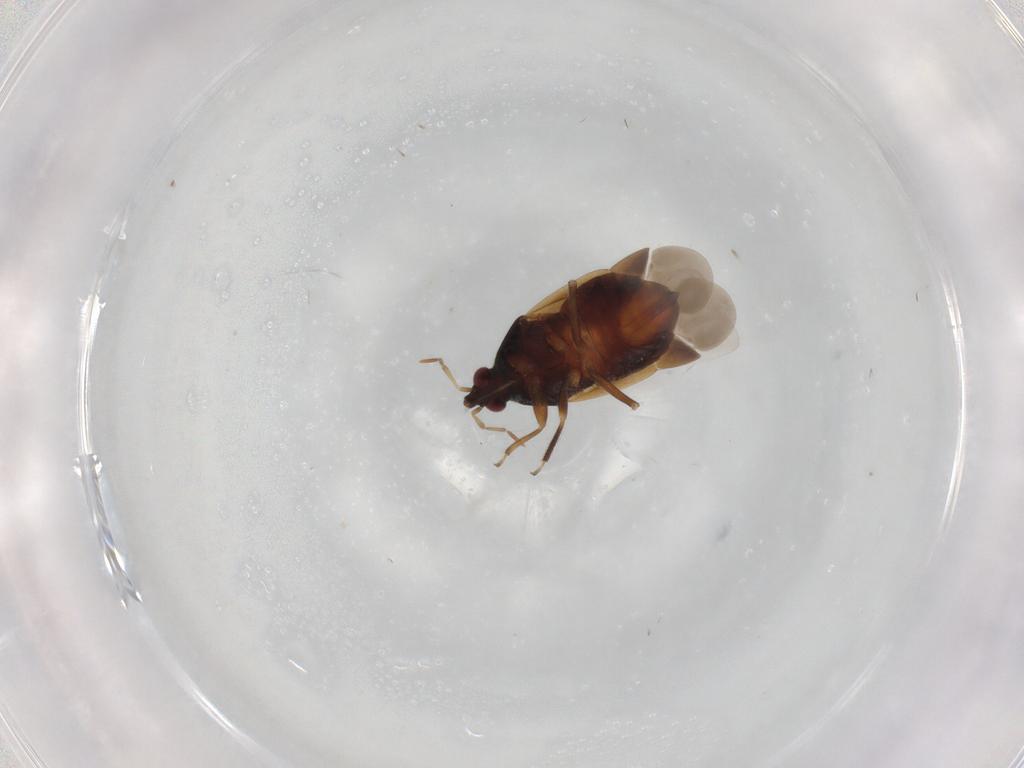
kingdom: Animalia
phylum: Arthropoda
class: Insecta
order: Hemiptera
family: Anthocoridae
